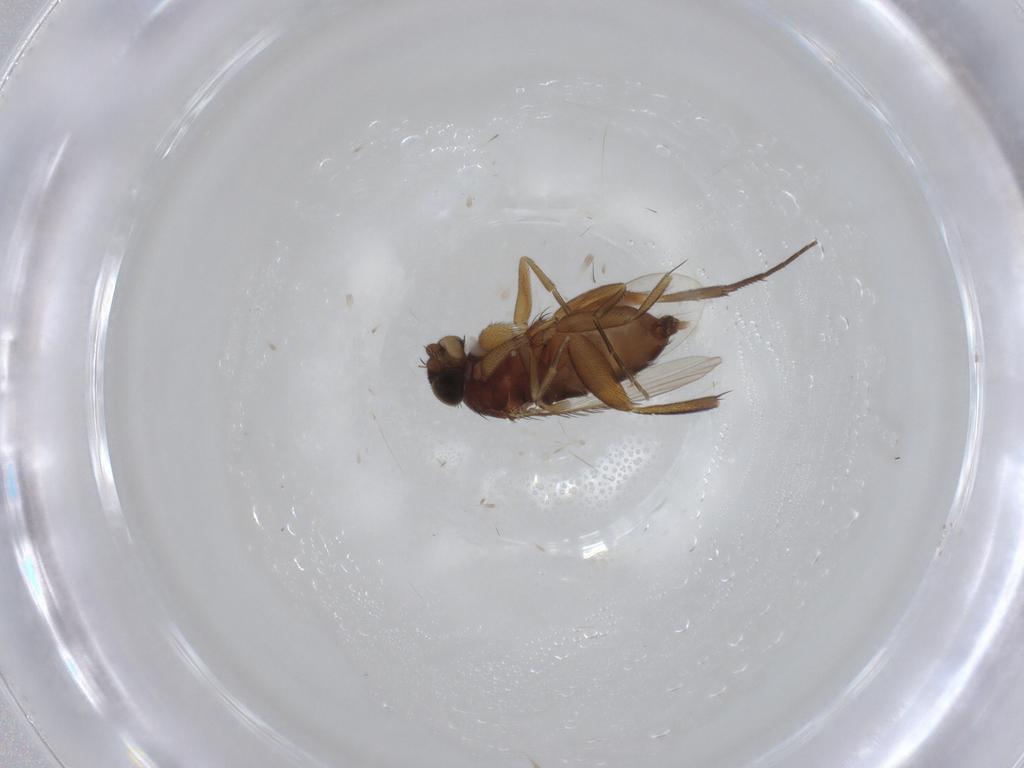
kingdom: Animalia
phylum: Arthropoda
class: Insecta
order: Diptera
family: Phoridae
